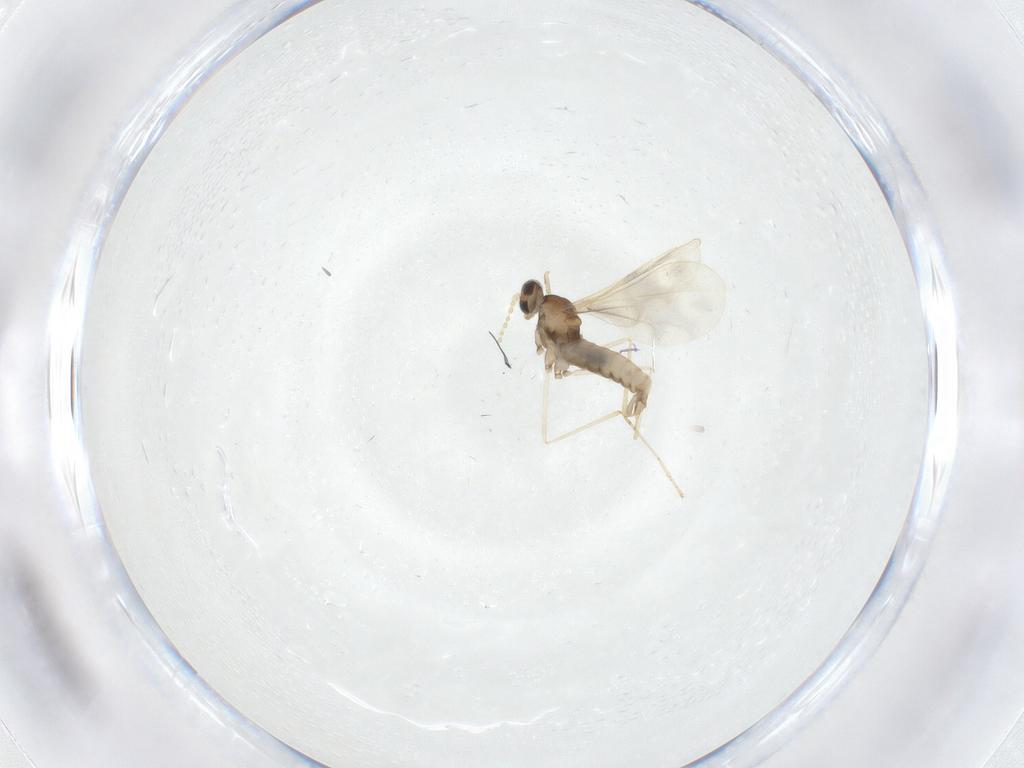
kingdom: Animalia
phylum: Arthropoda
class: Insecta
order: Diptera
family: Cecidomyiidae
